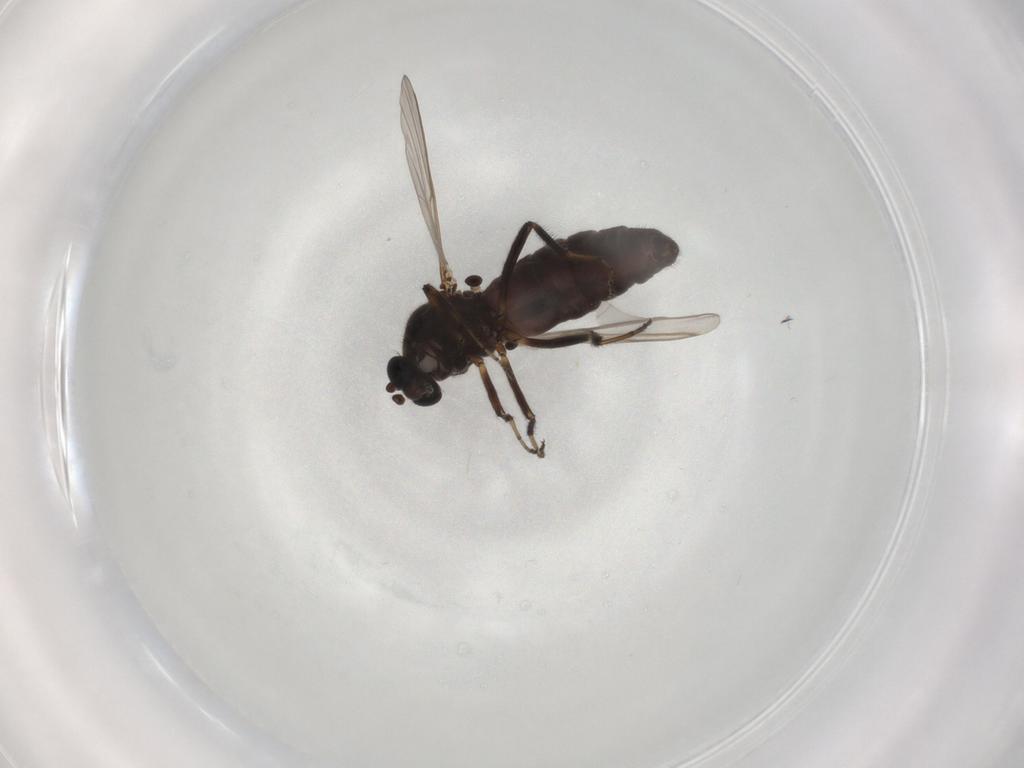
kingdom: Animalia
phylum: Arthropoda
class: Insecta
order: Diptera
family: Cecidomyiidae
